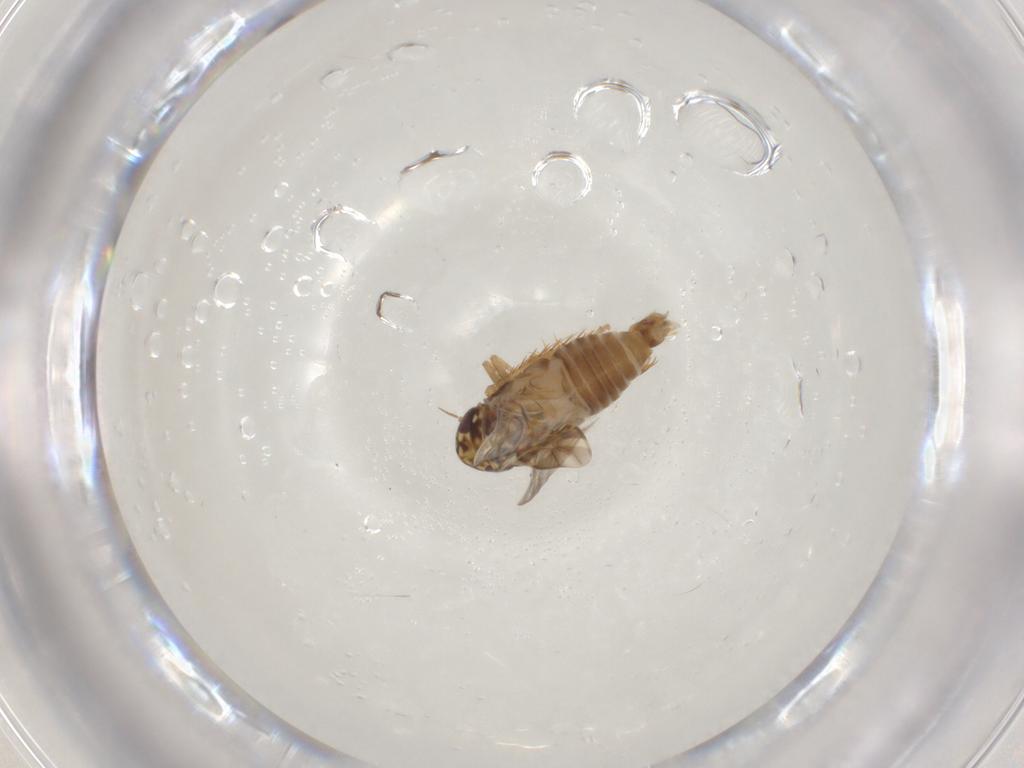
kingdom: Animalia
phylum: Arthropoda
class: Insecta
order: Hemiptera
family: Cicadellidae
